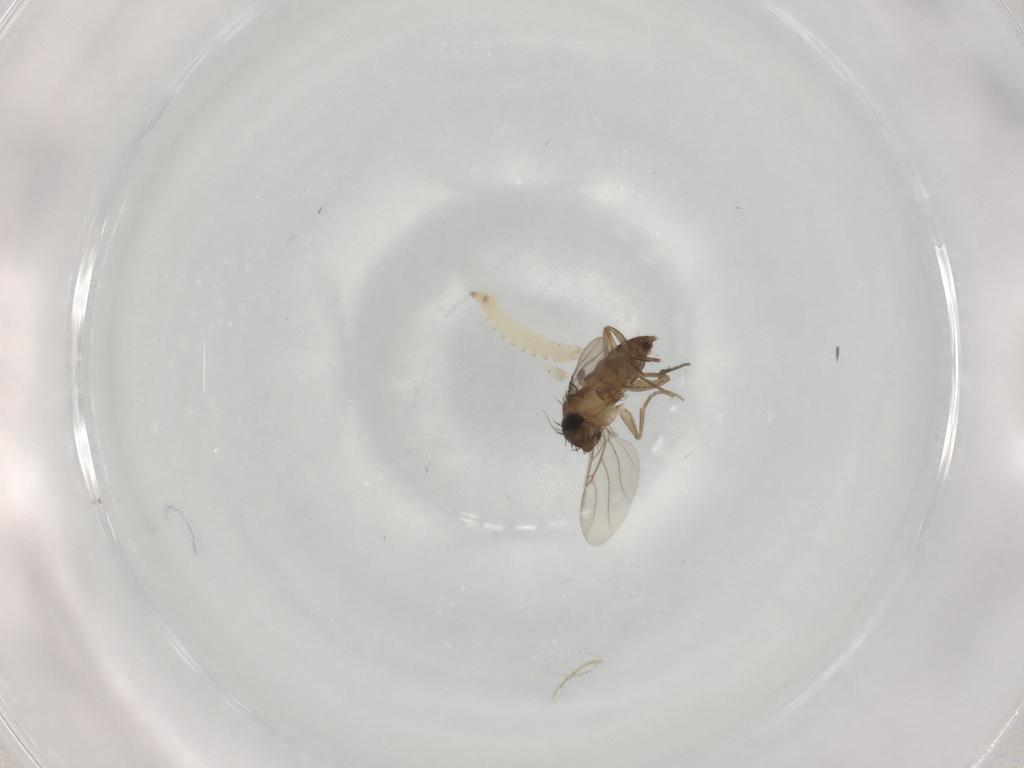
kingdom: Animalia
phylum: Arthropoda
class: Insecta
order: Diptera
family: Phoridae
